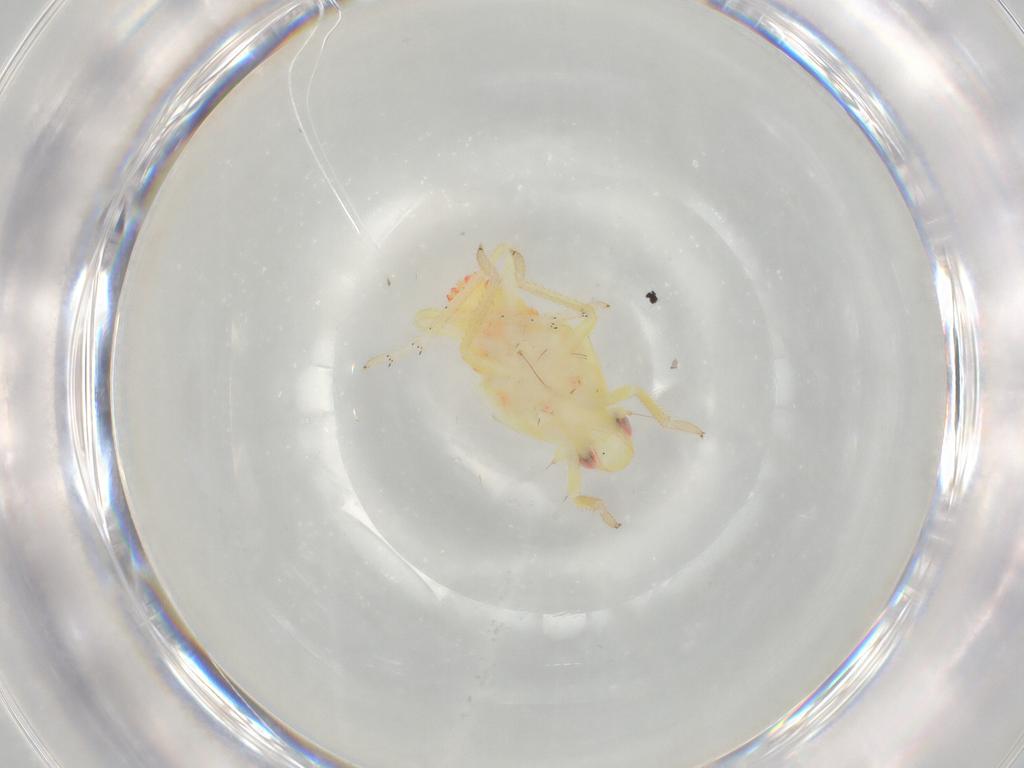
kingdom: Animalia
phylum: Arthropoda
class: Insecta
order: Hemiptera
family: Tropiduchidae
